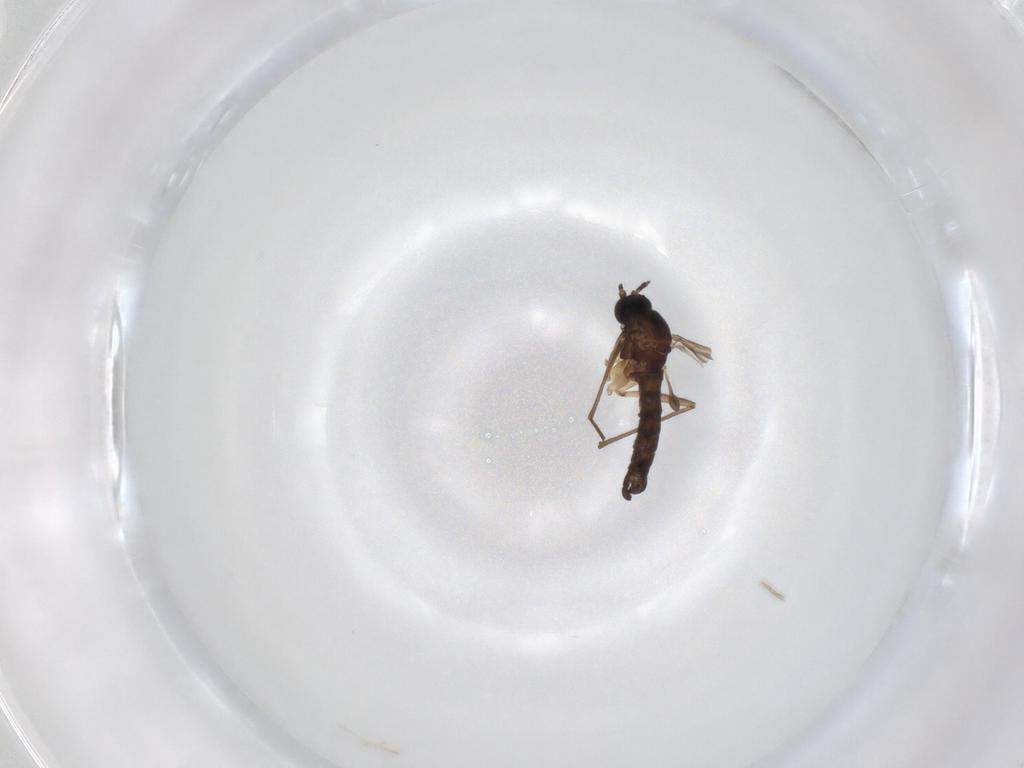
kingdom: Animalia
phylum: Arthropoda
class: Insecta
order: Diptera
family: Sciaridae
